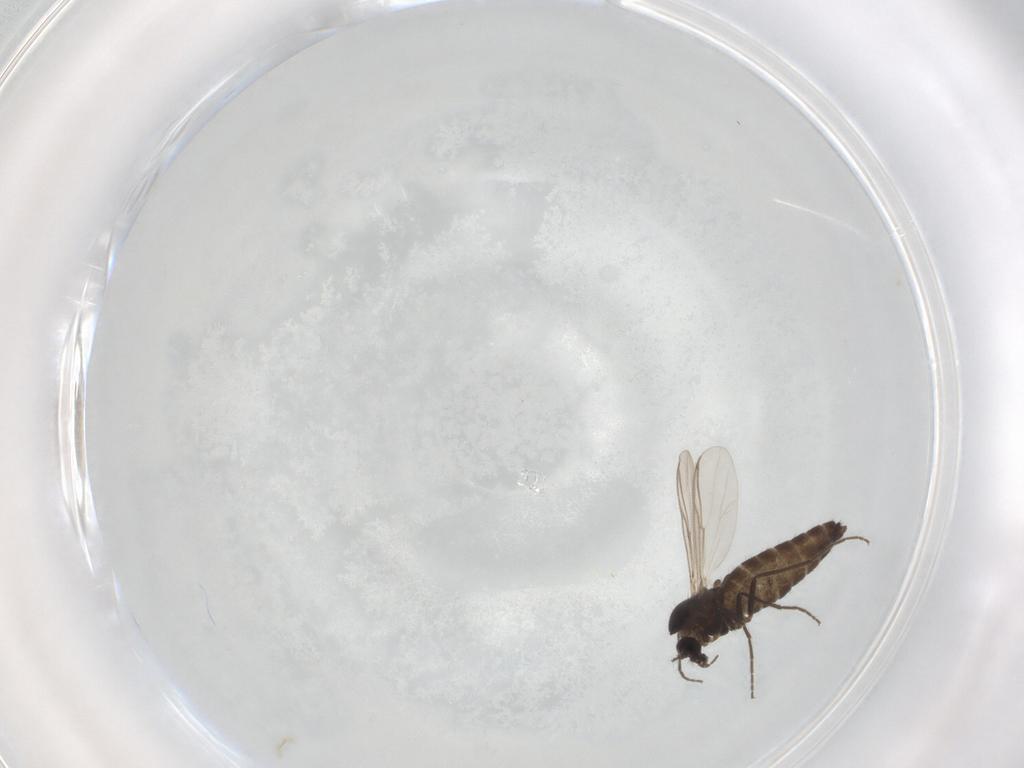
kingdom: Animalia
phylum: Arthropoda
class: Insecta
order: Diptera
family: Chironomidae
